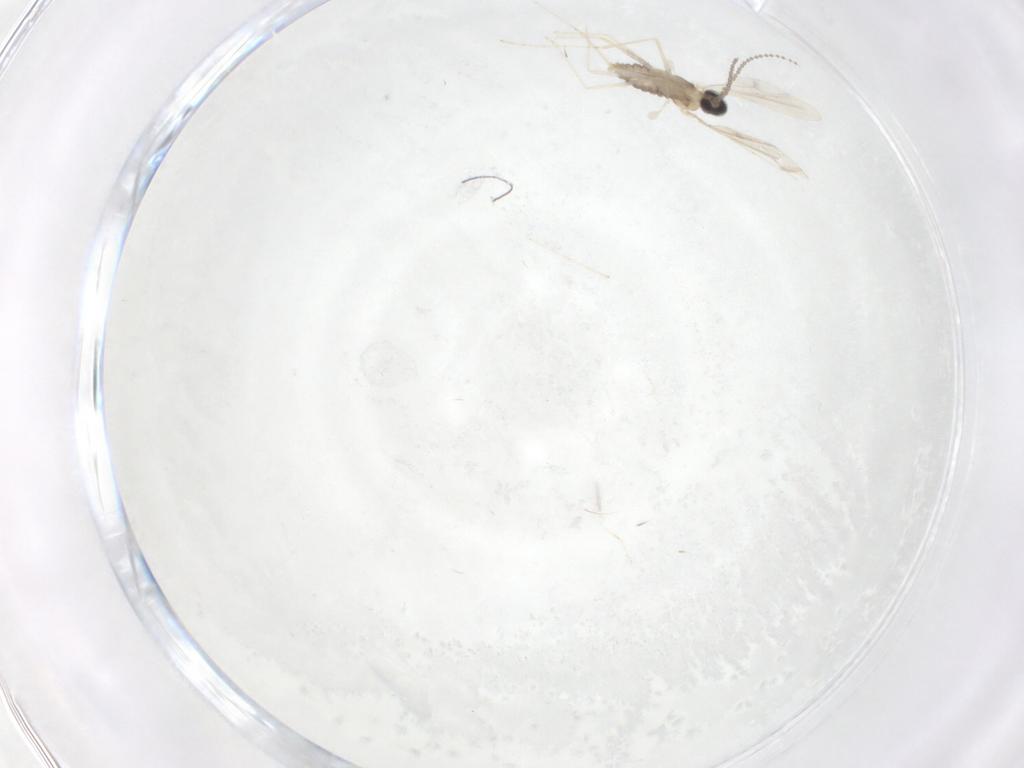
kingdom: Animalia
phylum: Arthropoda
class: Insecta
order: Diptera
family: Cecidomyiidae
